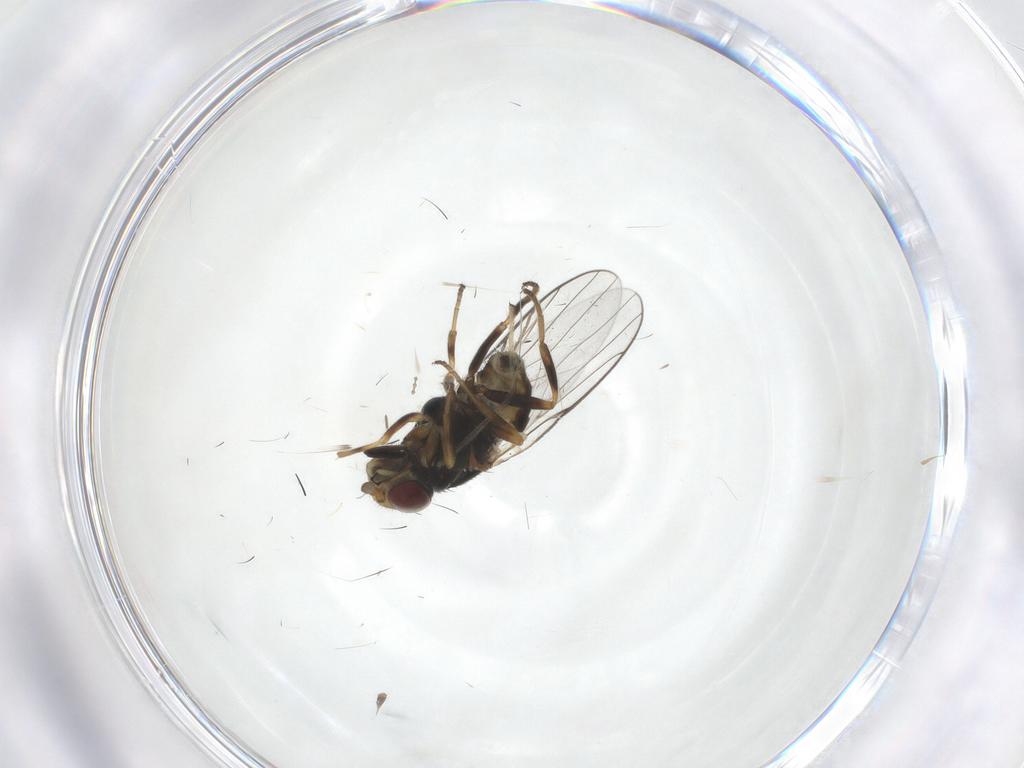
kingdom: Animalia
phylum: Arthropoda
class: Insecta
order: Diptera
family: Chloropidae
